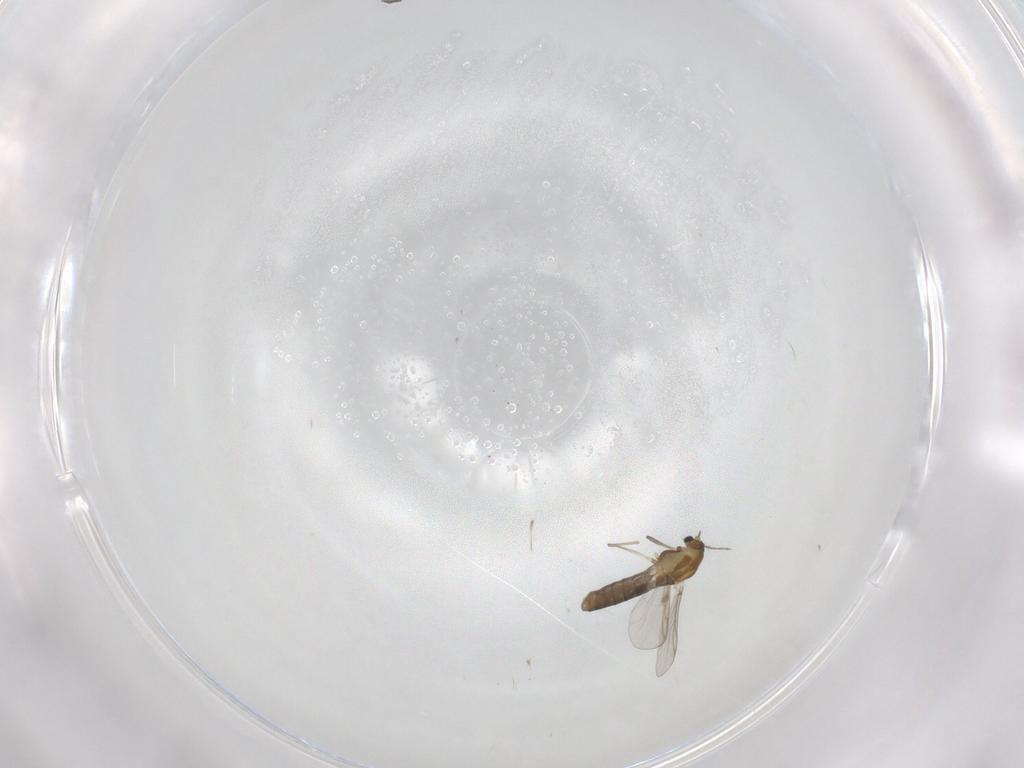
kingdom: Animalia
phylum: Arthropoda
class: Insecta
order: Diptera
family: Chironomidae
